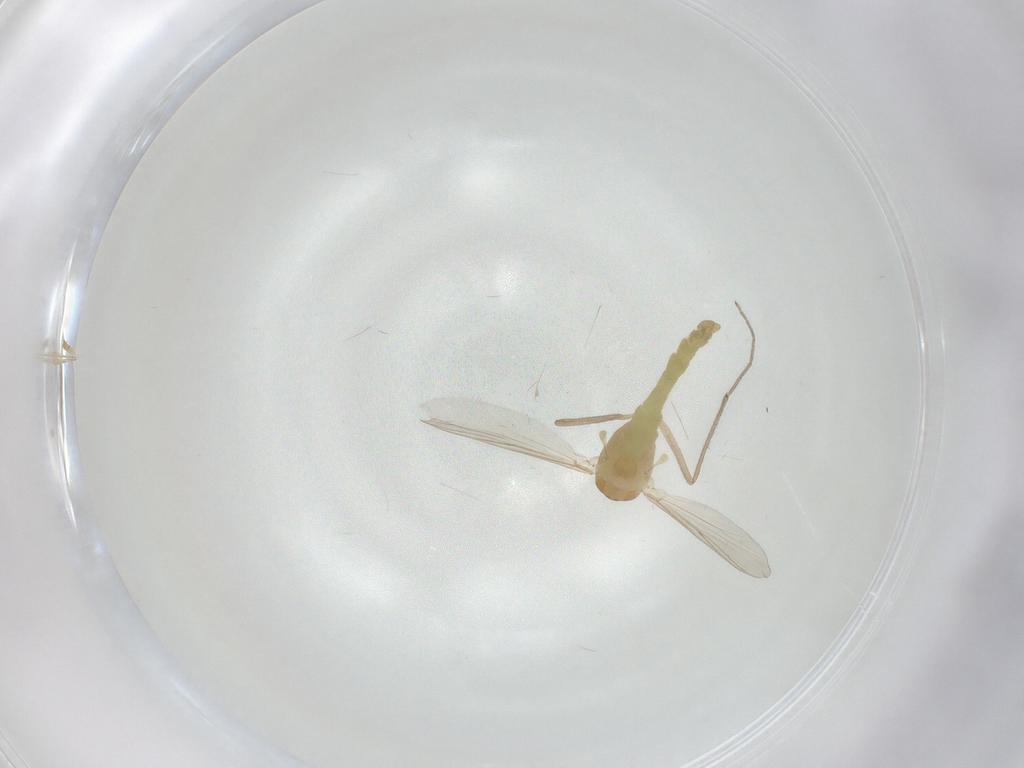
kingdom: Animalia
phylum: Arthropoda
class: Insecta
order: Diptera
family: Chironomidae
